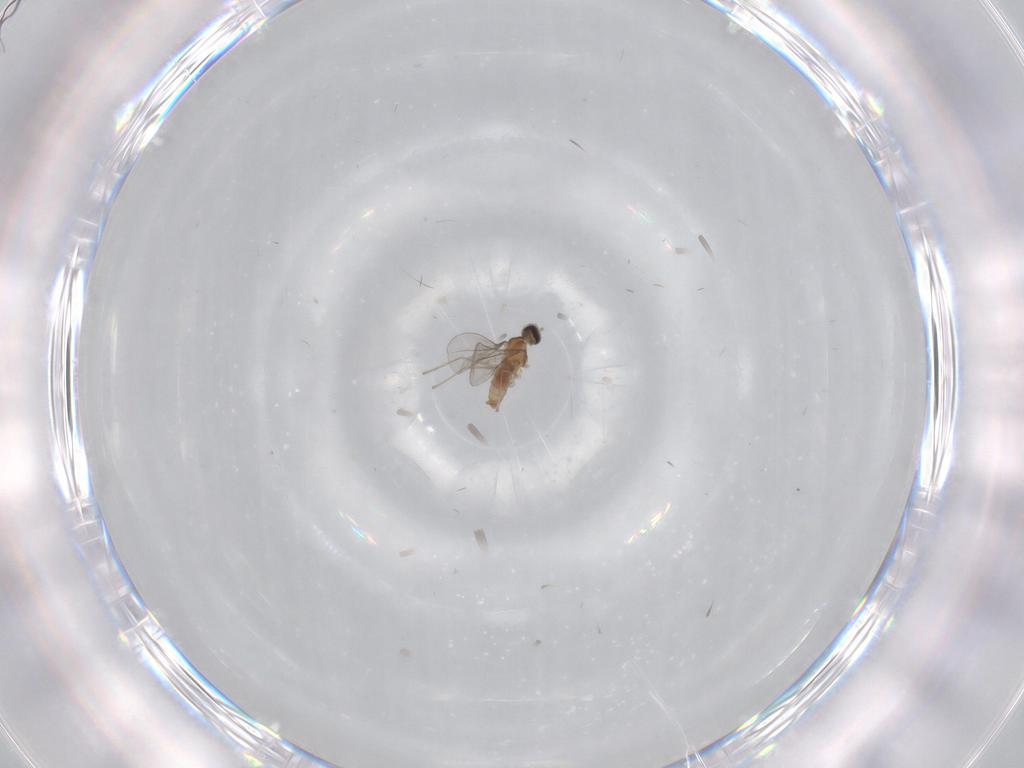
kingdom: Animalia
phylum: Arthropoda
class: Insecta
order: Diptera
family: Cecidomyiidae
